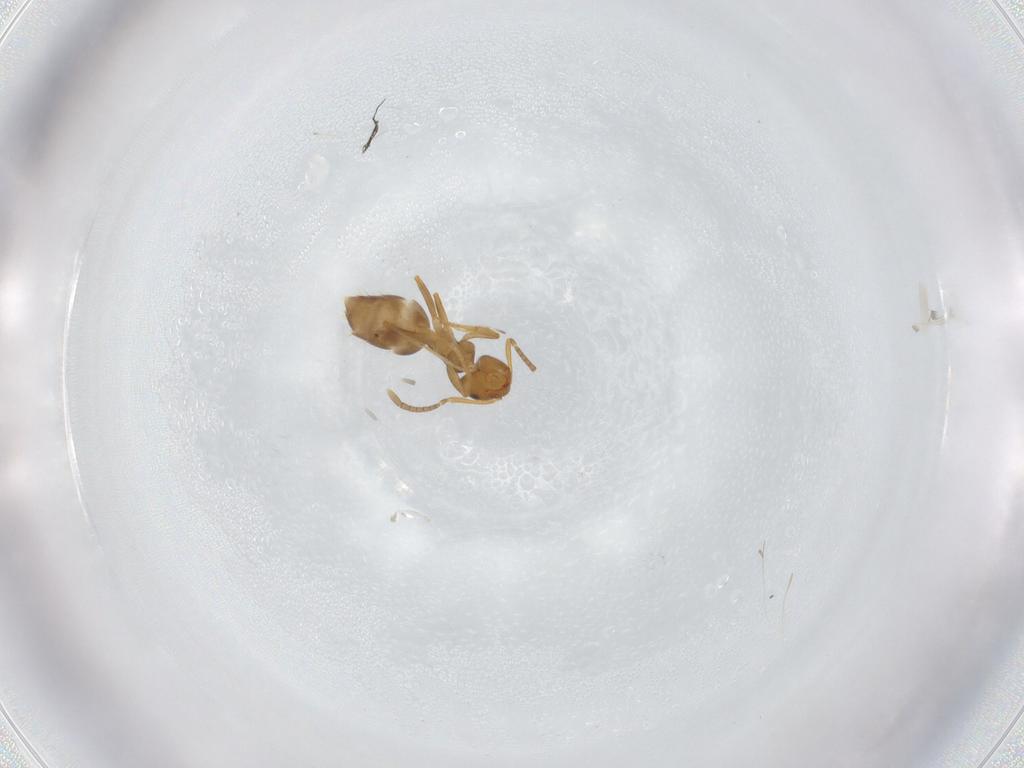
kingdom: Animalia
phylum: Arthropoda
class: Insecta
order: Hymenoptera
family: Formicidae
